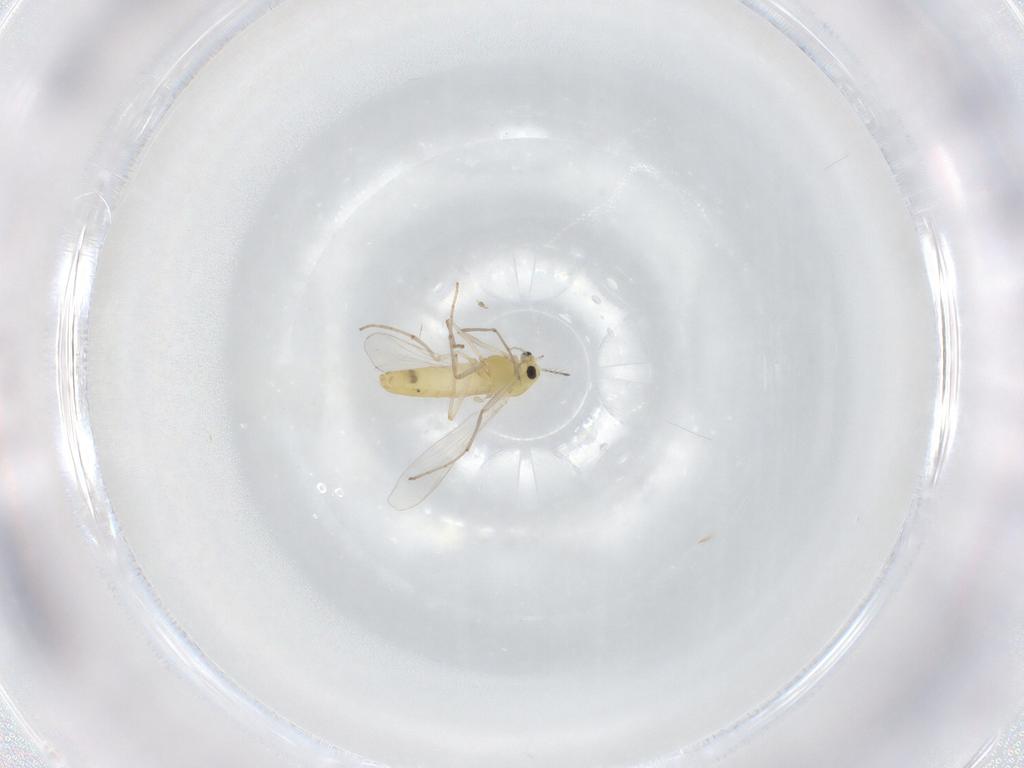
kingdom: Animalia
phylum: Arthropoda
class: Insecta
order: Diptera
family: Chironomidae
